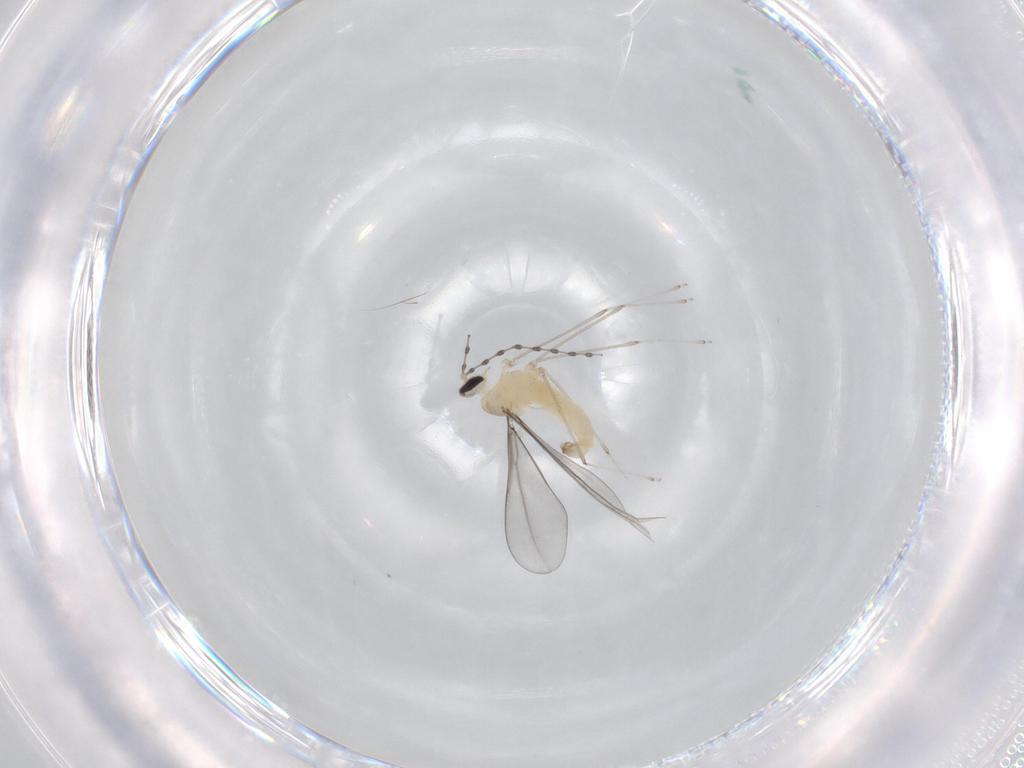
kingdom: Animalia
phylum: Arthropoda
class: Insecta
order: Diptera
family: Cecidomyiidae
